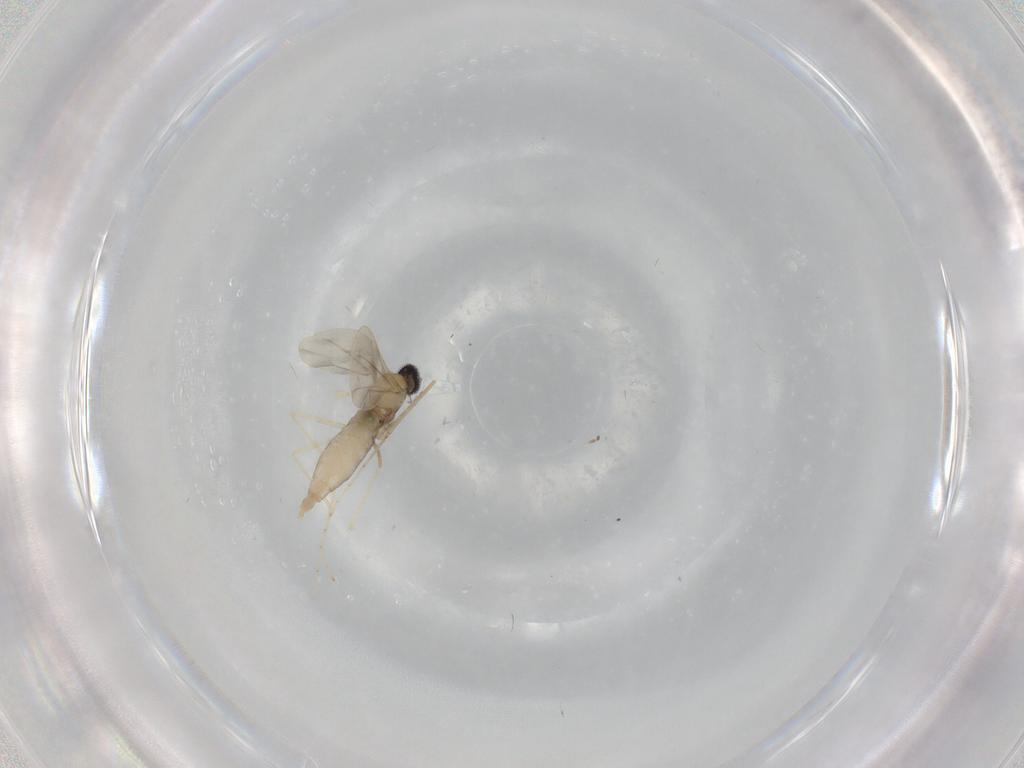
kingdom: Animalia
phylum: Arthropoda
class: Insecta
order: Diptera
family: Cecidomyiidae
